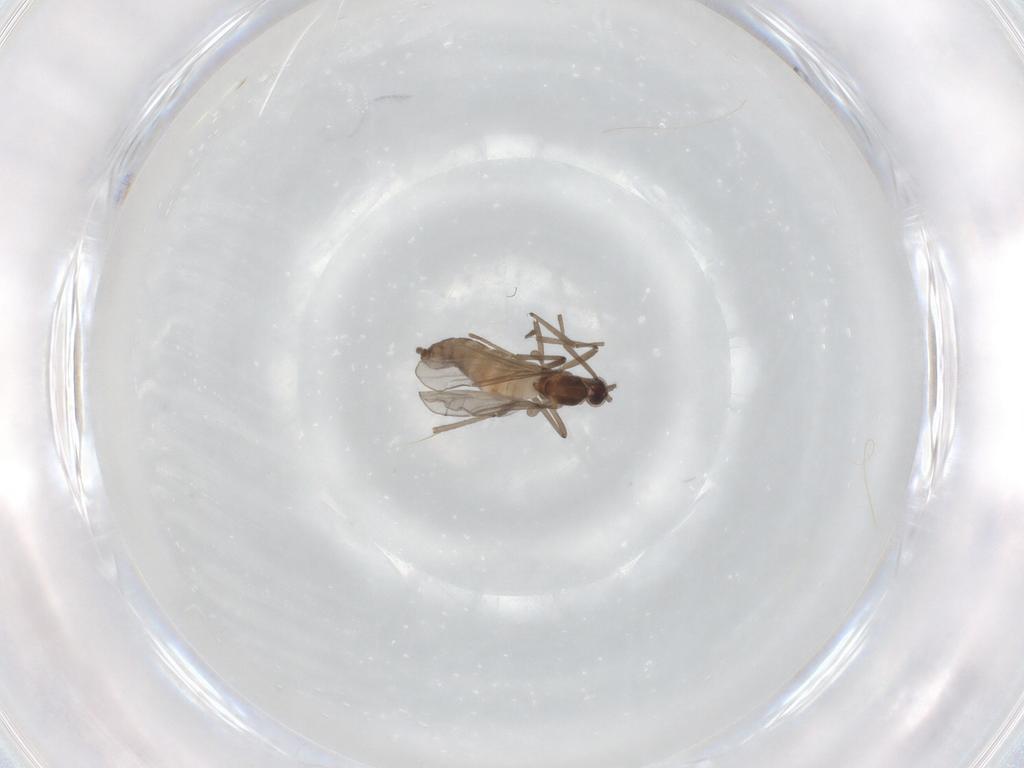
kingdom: Animalia
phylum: Arthropoda
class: Insecta
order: Diptera
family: Cecidomyiidae
